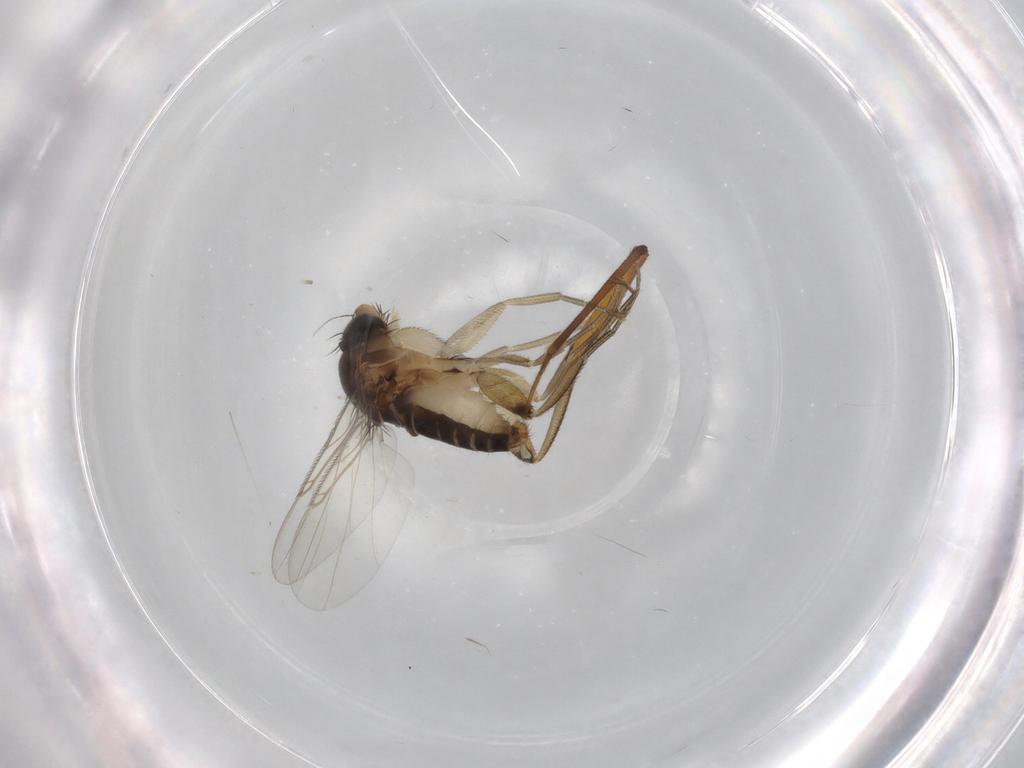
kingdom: Animalia
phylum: Arthropoda
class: Insecta
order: Diptera
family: Phoridae
